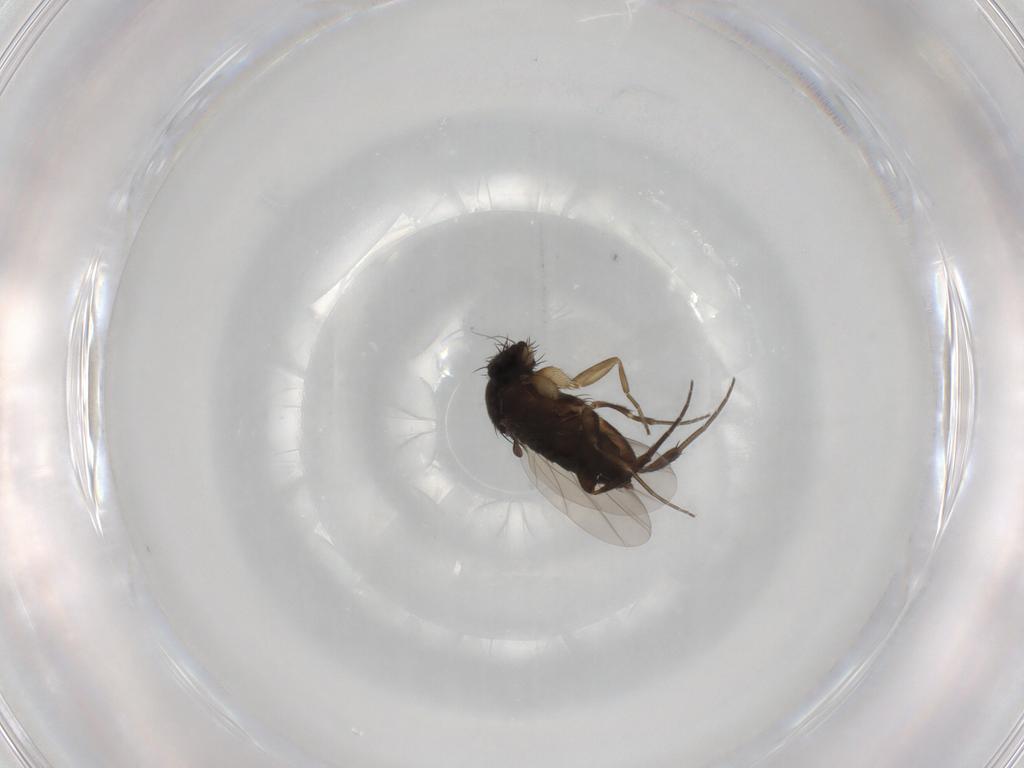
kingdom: Animalia
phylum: Arthropoda
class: Insecta
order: Diptera
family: Phoridae
